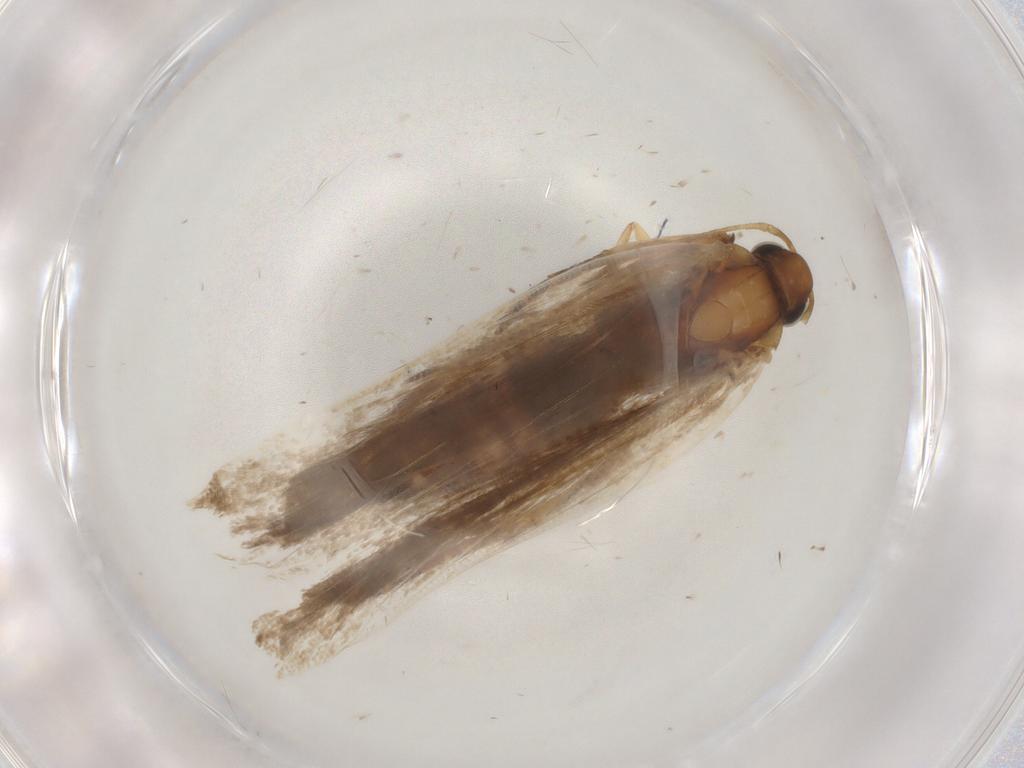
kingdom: Animalia
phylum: Arthropoda
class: Insecta
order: Lepidoptera
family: Gelechiidae
